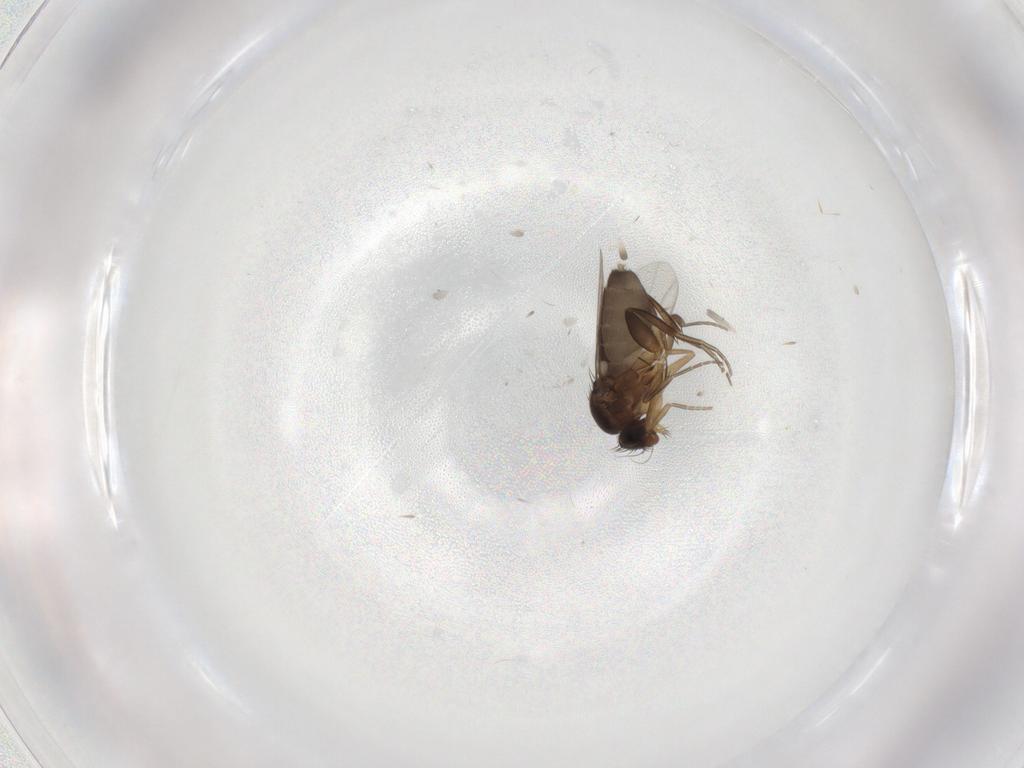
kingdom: Animalia
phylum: Arthropoda
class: Insecta
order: Diptera
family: Phoridae
